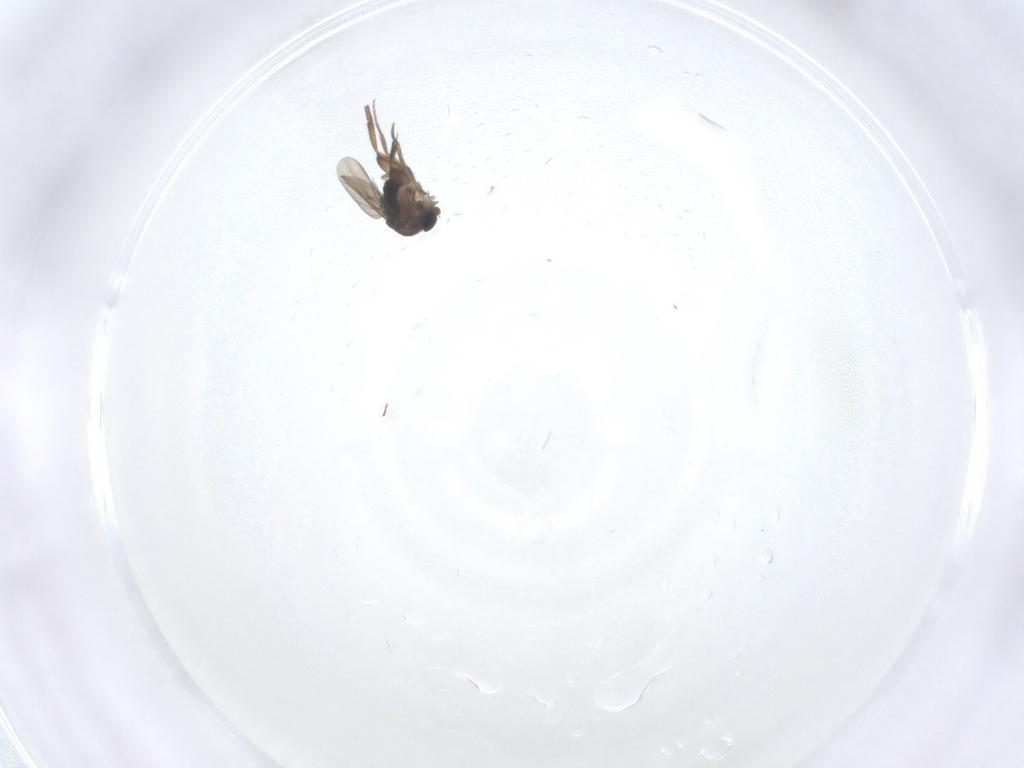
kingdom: Animalia
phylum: Arthropoda
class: Insecta
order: Diptera
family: Phoridae
